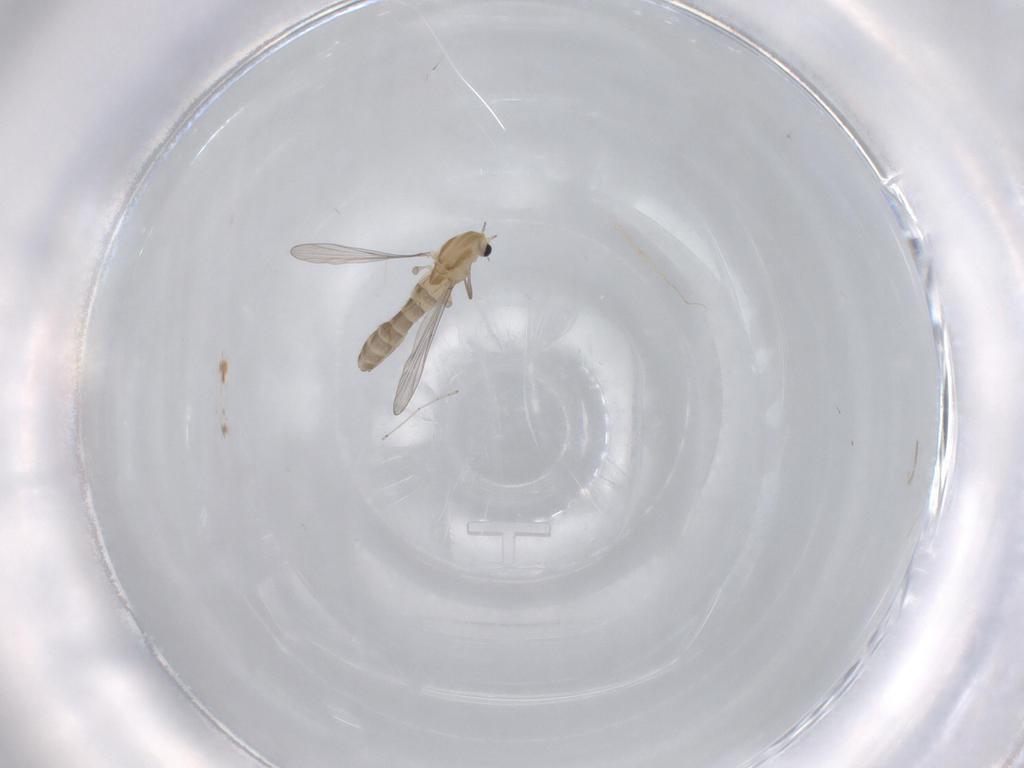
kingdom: Animalia
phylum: Arthropoda
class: Insecta
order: Diptera
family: Chironomidae
